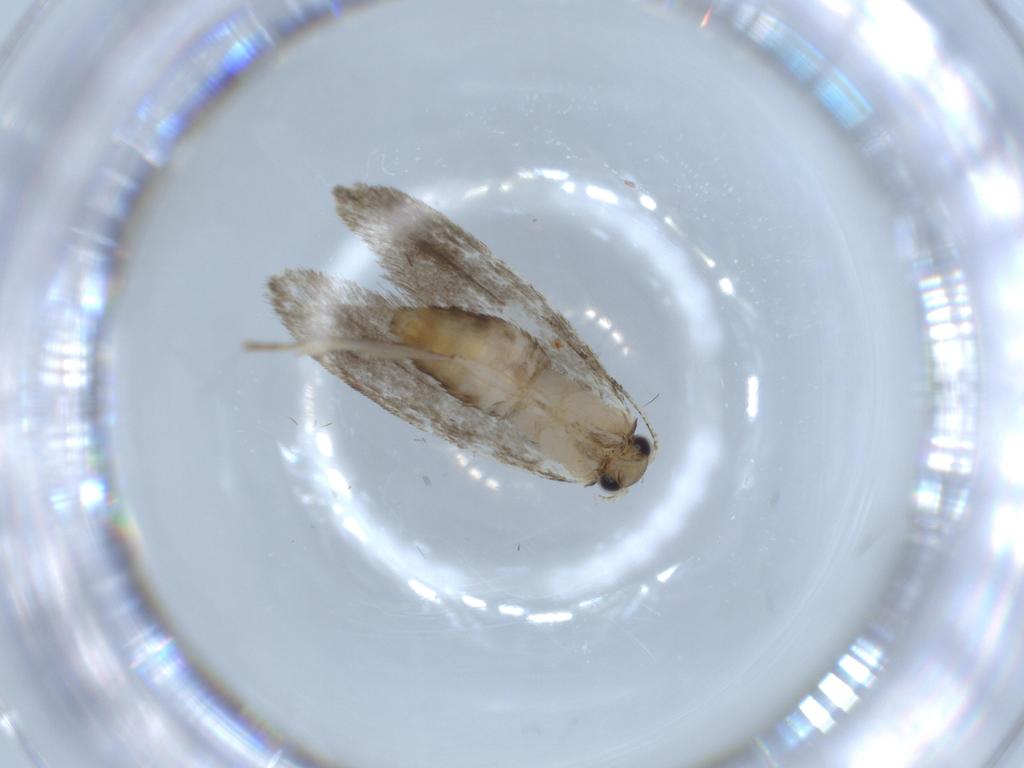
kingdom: Animalia
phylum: Arthropoda
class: Insecta
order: Lepidoptera
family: Tineidae
